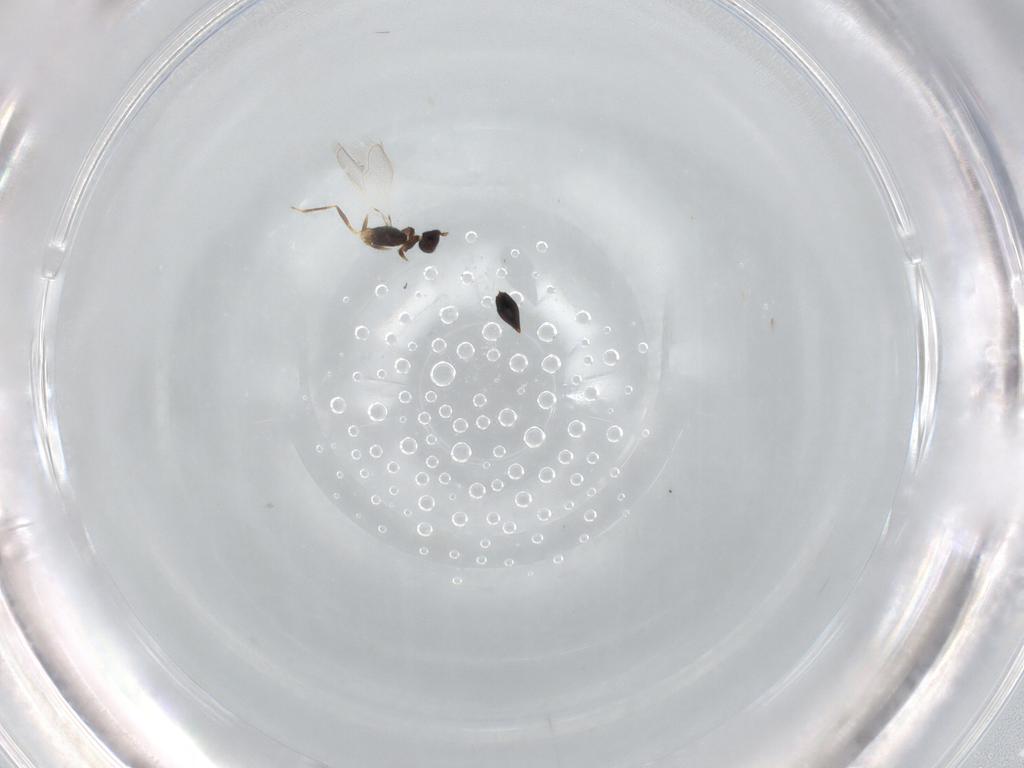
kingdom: Animalia
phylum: Arthropoda
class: Insecta
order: Hymenoptera
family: Mymaridae
